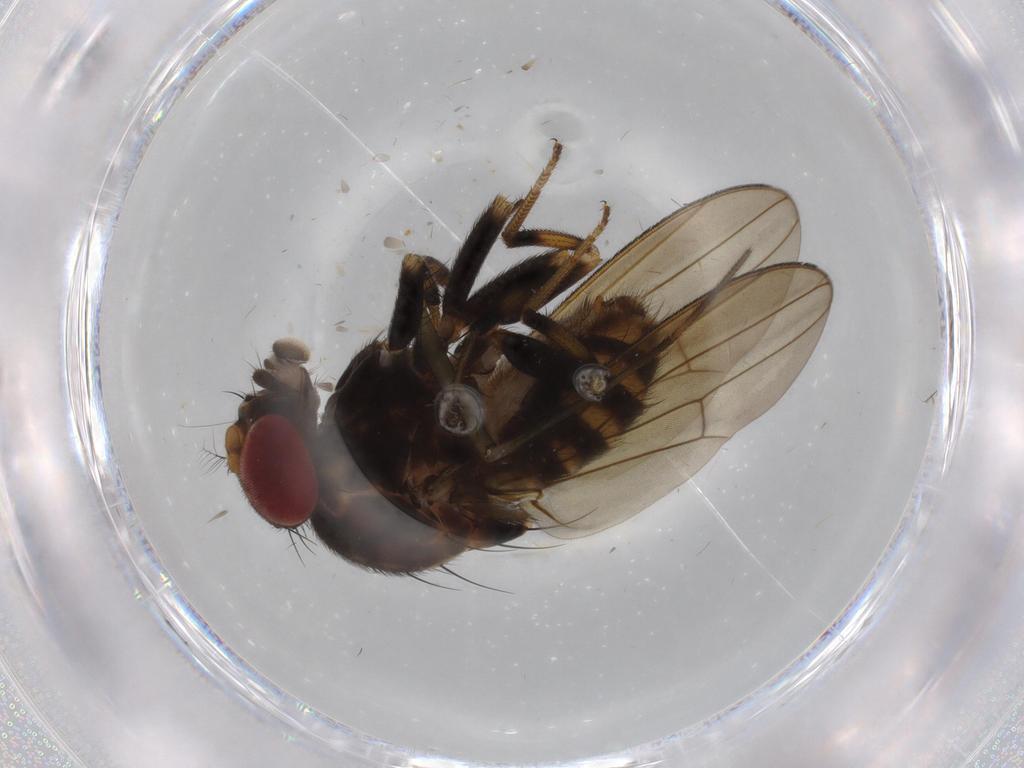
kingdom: Animalia
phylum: Arthropoda
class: Insecta
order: Diptera
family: Drosophilidae
